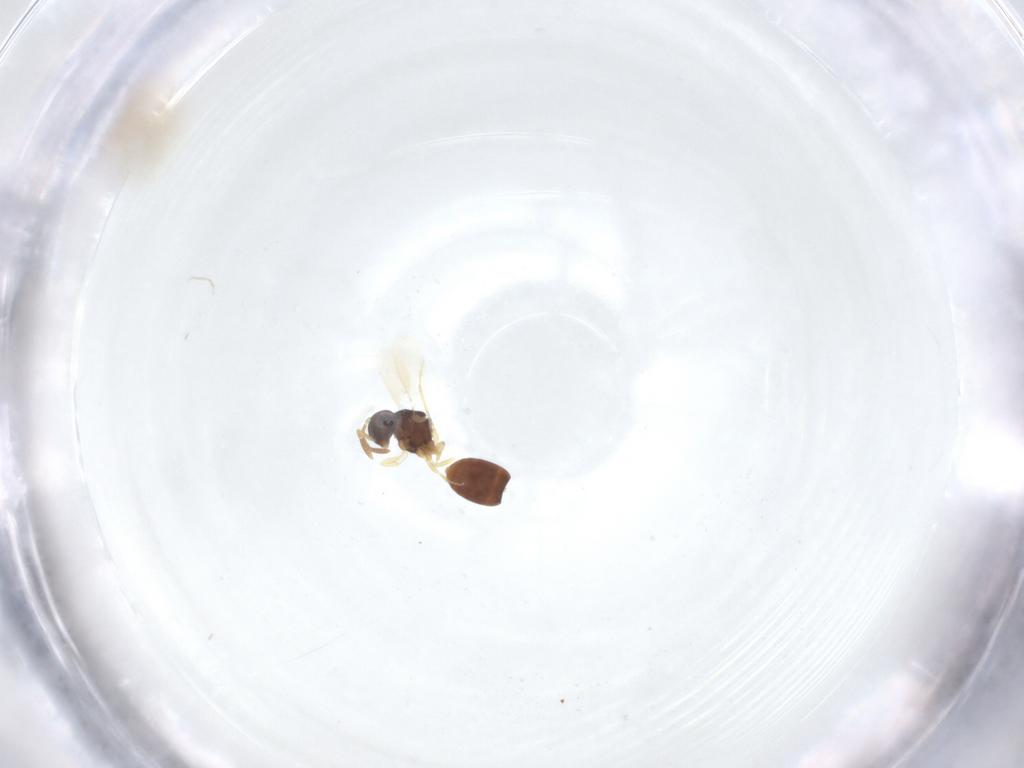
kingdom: Animalia
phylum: Arthropoda
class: Insecta
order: Hymenoptera
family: Scelionidae
